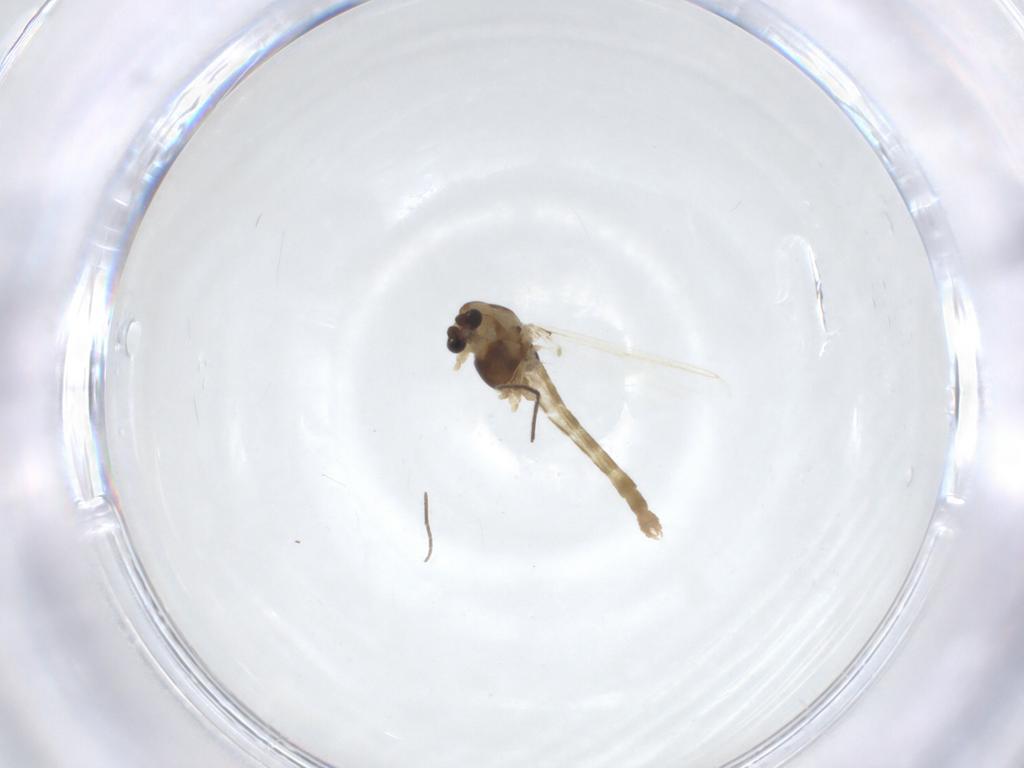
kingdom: Animalia
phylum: Arthropoda
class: Insecta
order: Diptera
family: Chironomidae
